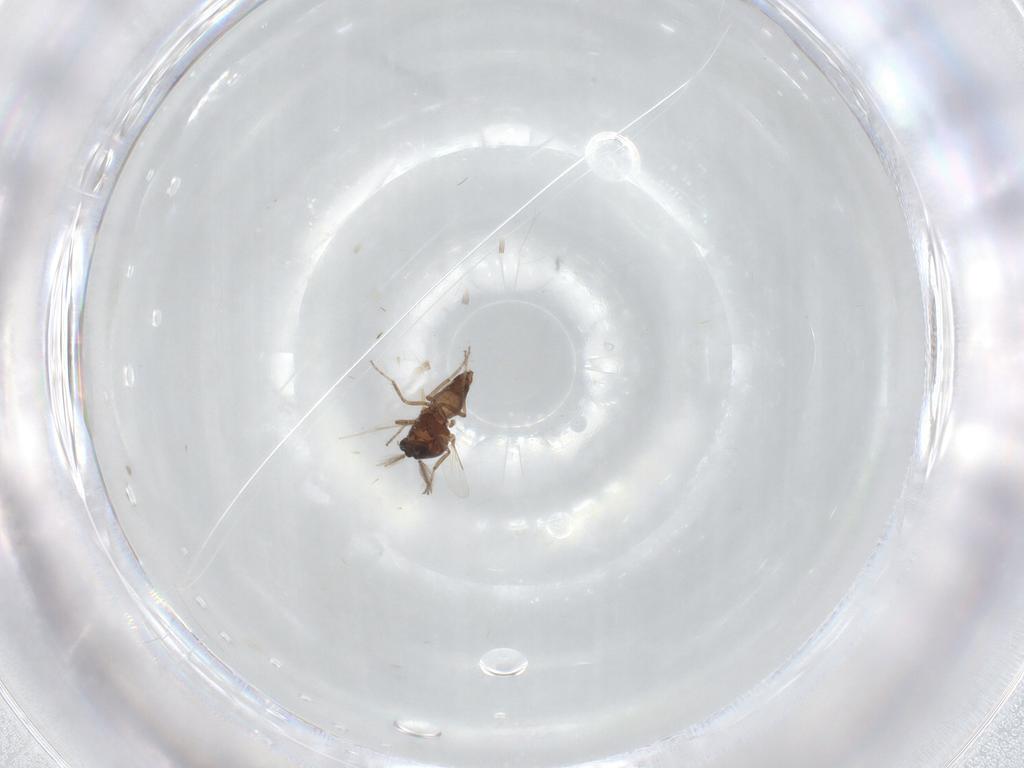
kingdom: Animalia
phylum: Arthropoda
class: Insecta
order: Diptera
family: Ceratopogonidae
